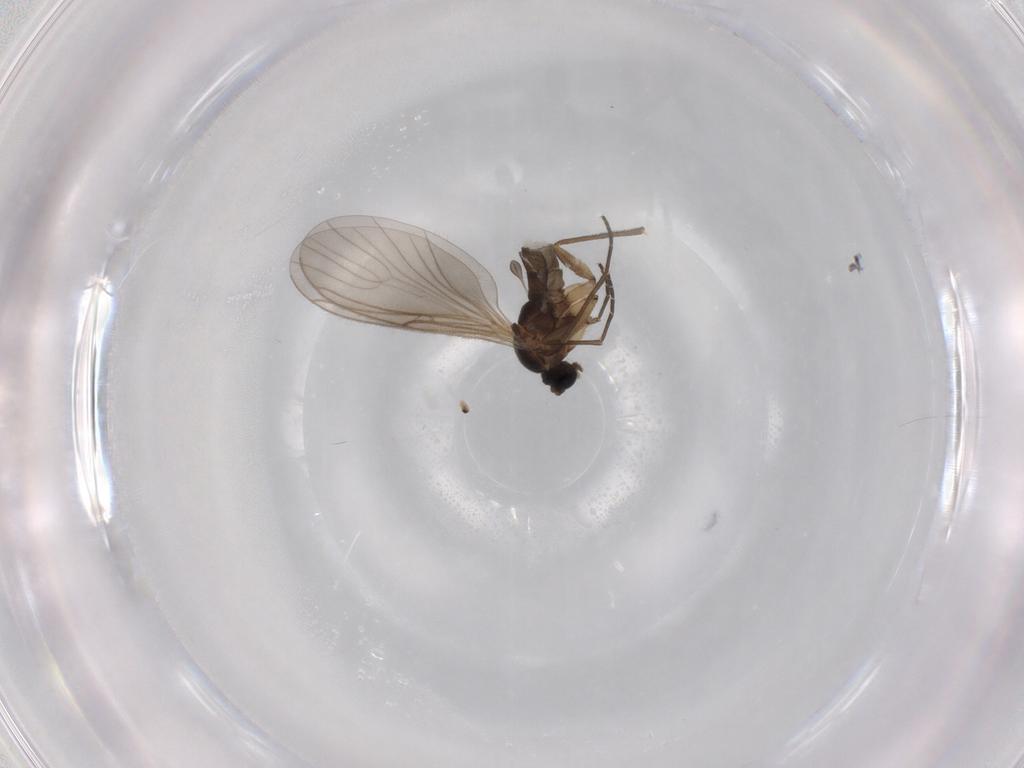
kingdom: Animalia
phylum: Arthropoda
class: Insecta
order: Diptera
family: Sciaridae
